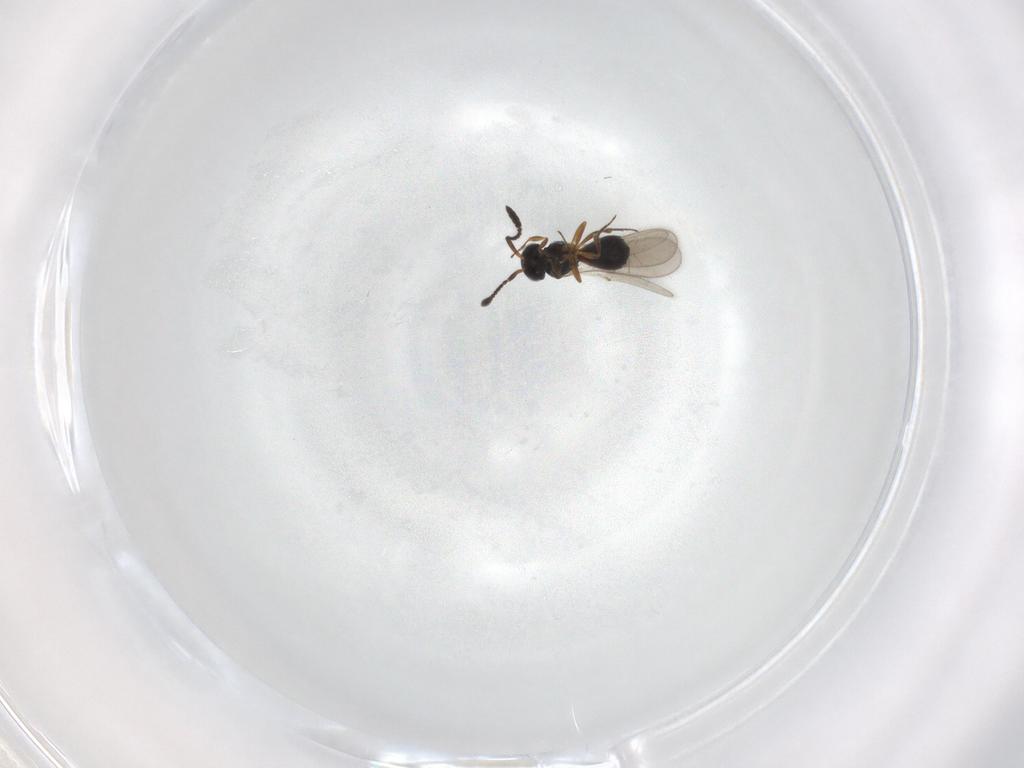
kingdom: Animalia
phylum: Arthropoda
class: Insecta
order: Hymenoptera
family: Scelionidae
